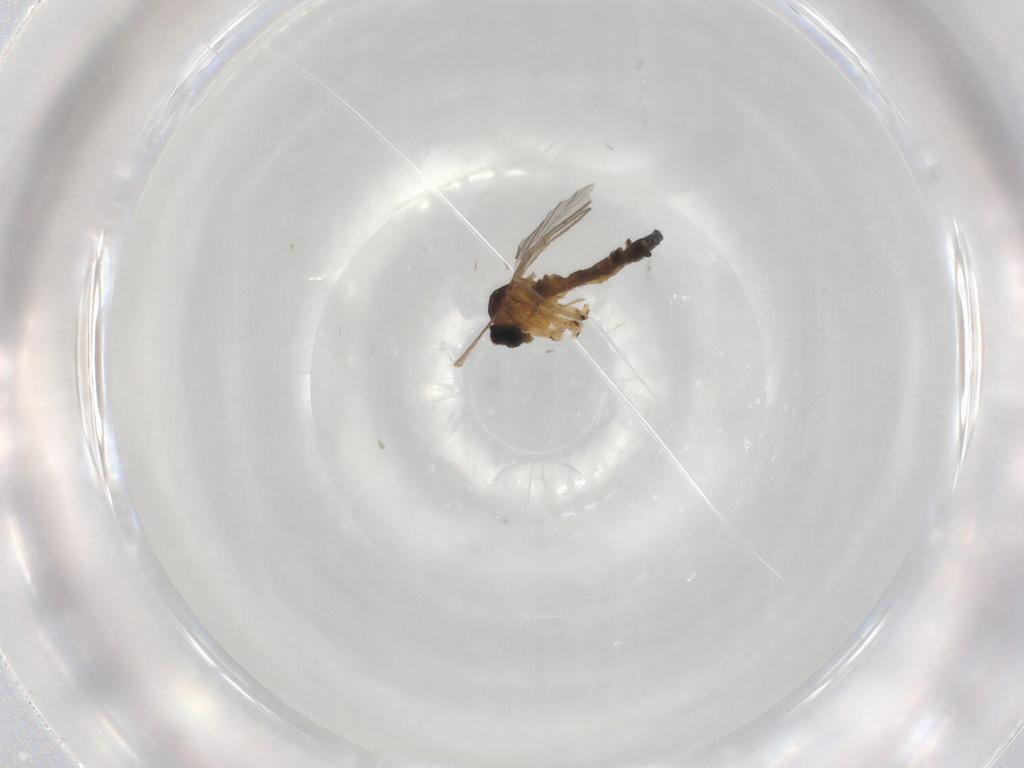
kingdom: Animalia
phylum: Arthropoda
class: Insecta
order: Diptera
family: Sciaridae
